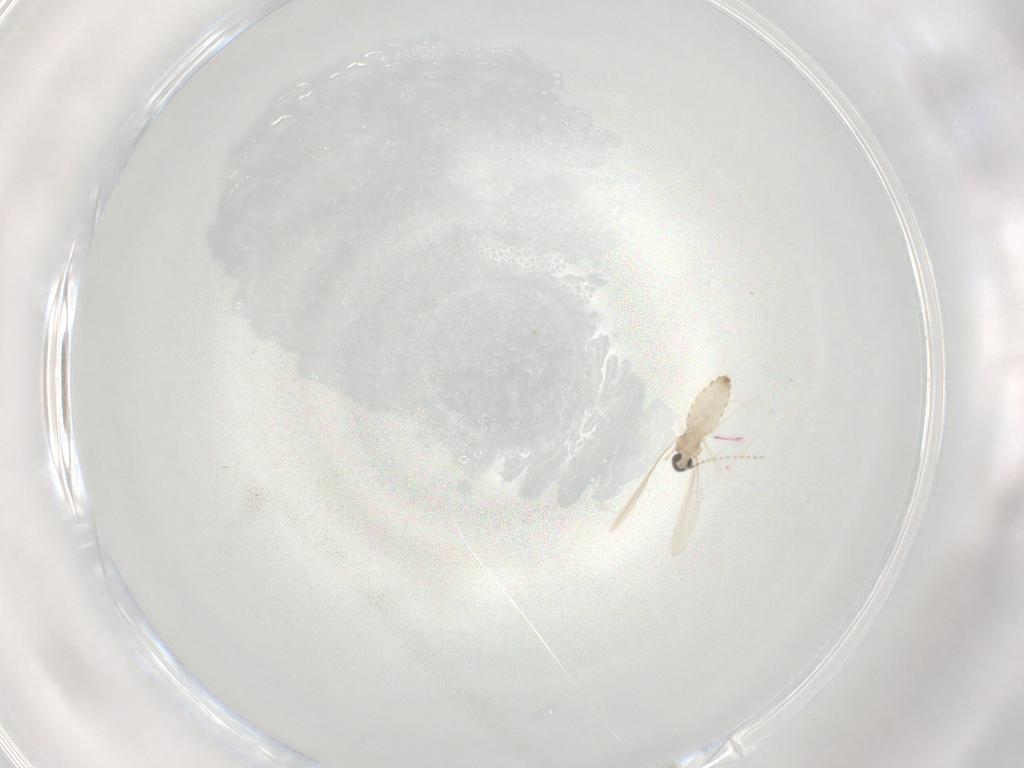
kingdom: Animalia
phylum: Arthropoda
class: Insecta
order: Diptera
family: Cecidomyiidae
